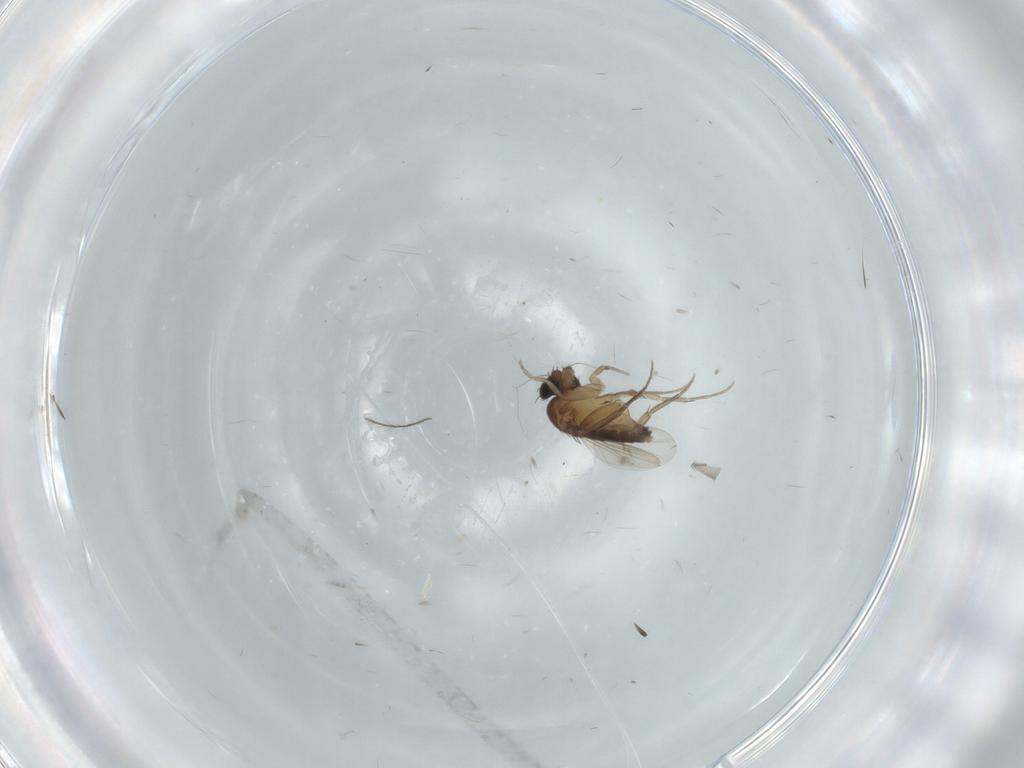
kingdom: Animalia
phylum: Arthropoda
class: Insecta
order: Diptera
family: Phoridae
